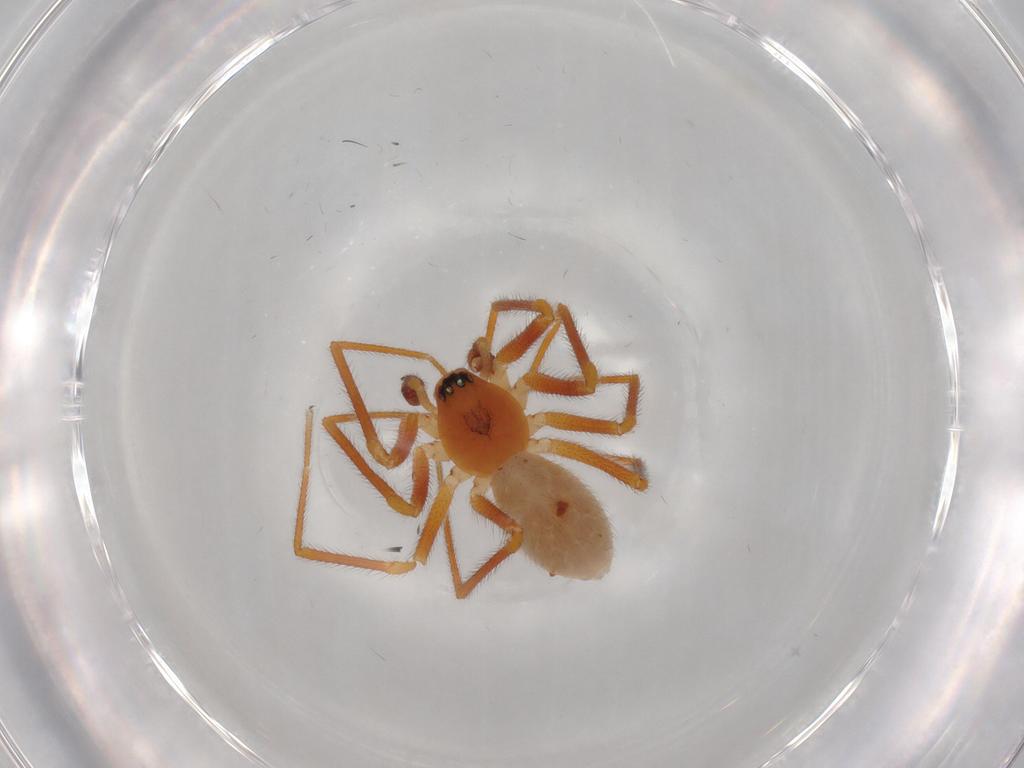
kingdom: Animalia
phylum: Arthropoda
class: Arachnida
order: Araneae
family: Linyphiidae
